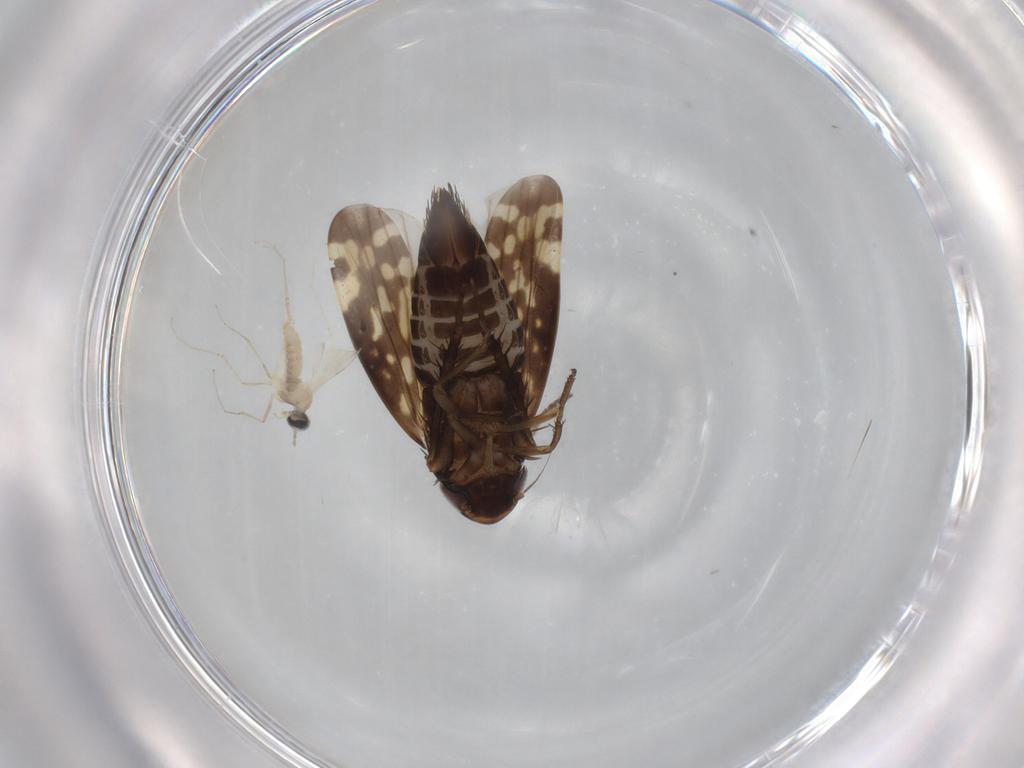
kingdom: Animalia
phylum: Arthropoda
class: Insecta
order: Hemiptera
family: Cicadellidae
